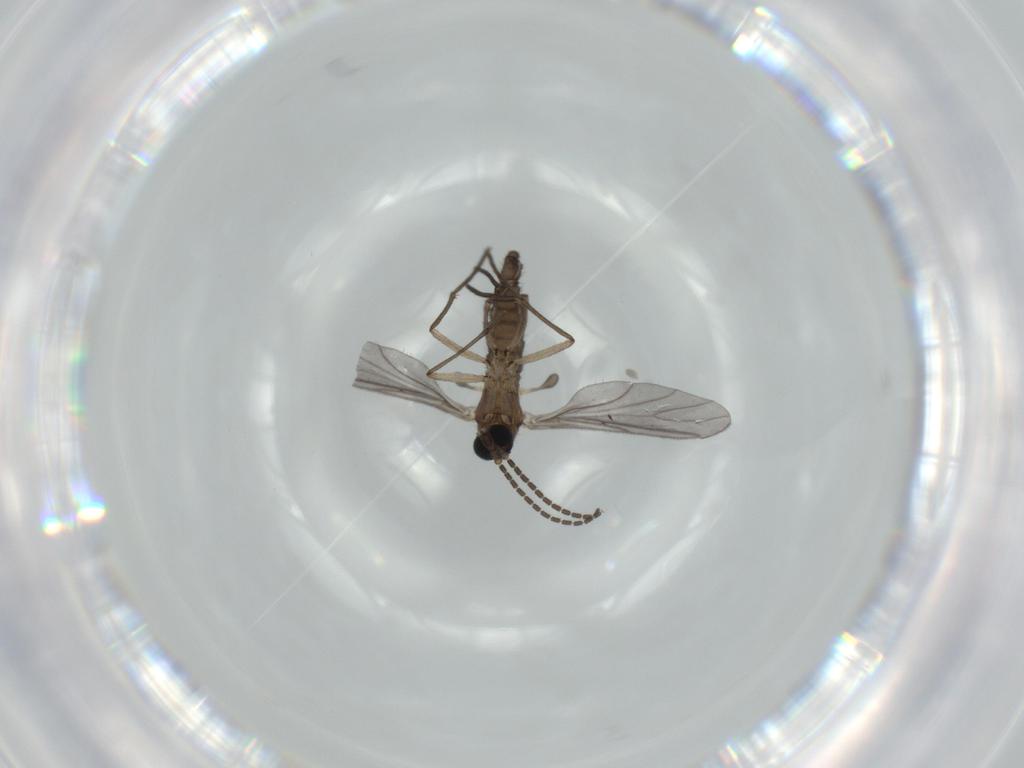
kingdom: Animalia
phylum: Arthropoda
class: Insecta
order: Diptera
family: Sciaridae
